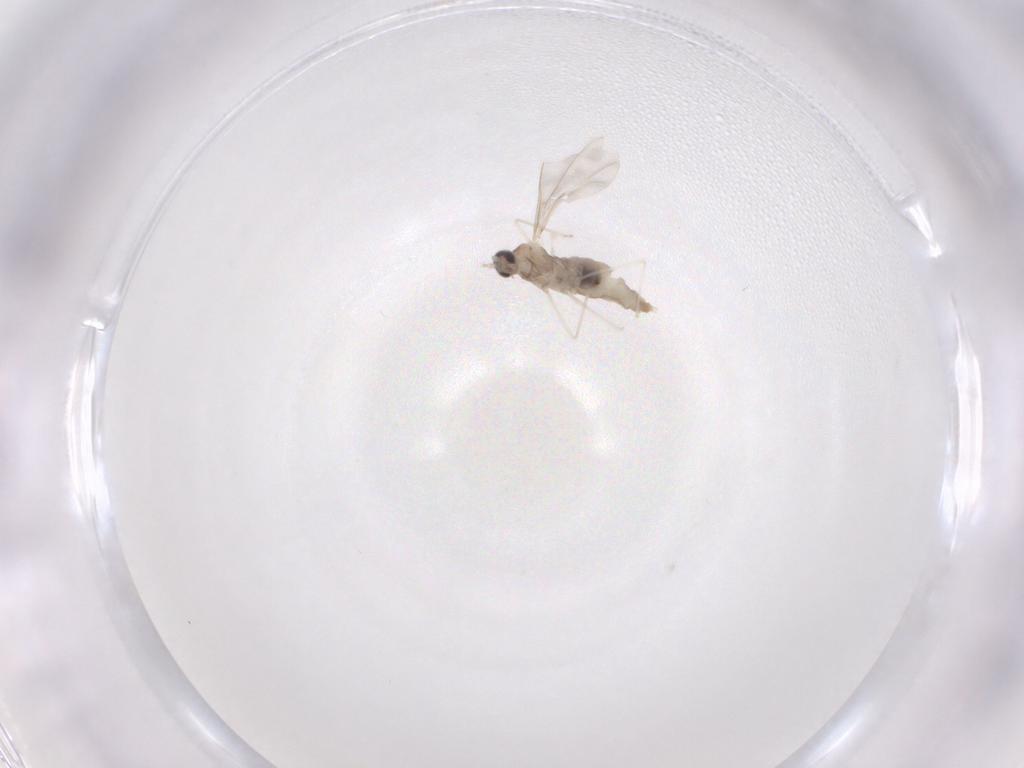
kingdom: Animalia
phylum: Arthropoda
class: Insecta
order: Diptera
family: Limoniidae
